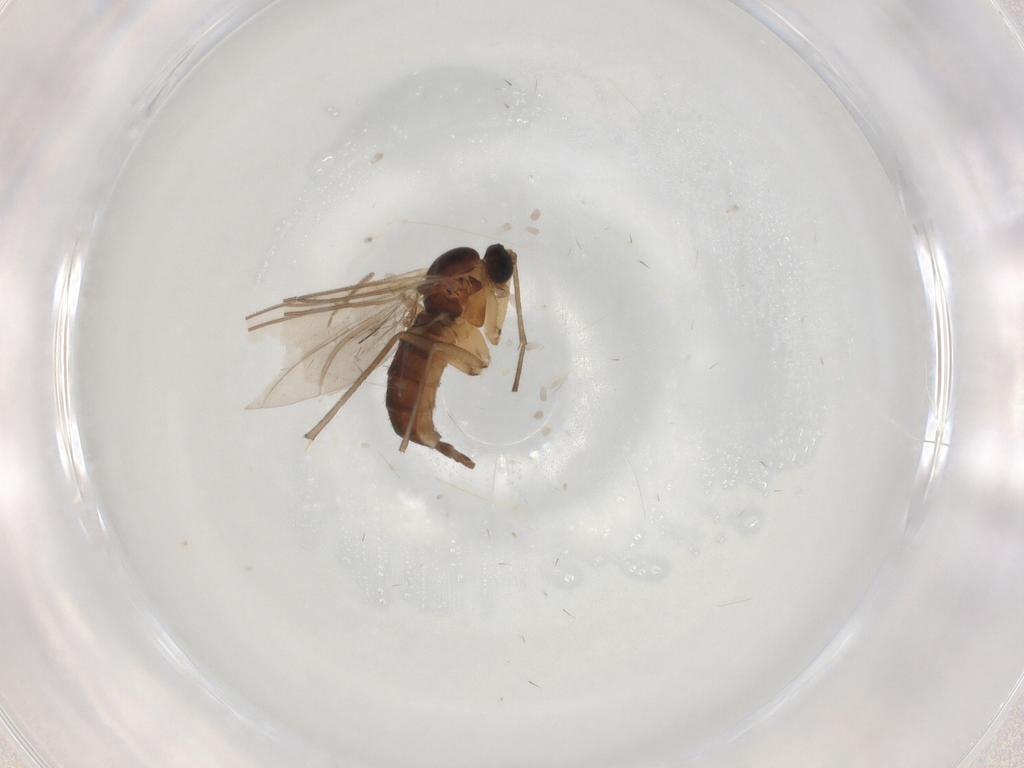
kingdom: Animalia
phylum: Arthropoda
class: Insecta
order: Diptera
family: Sciaridae
